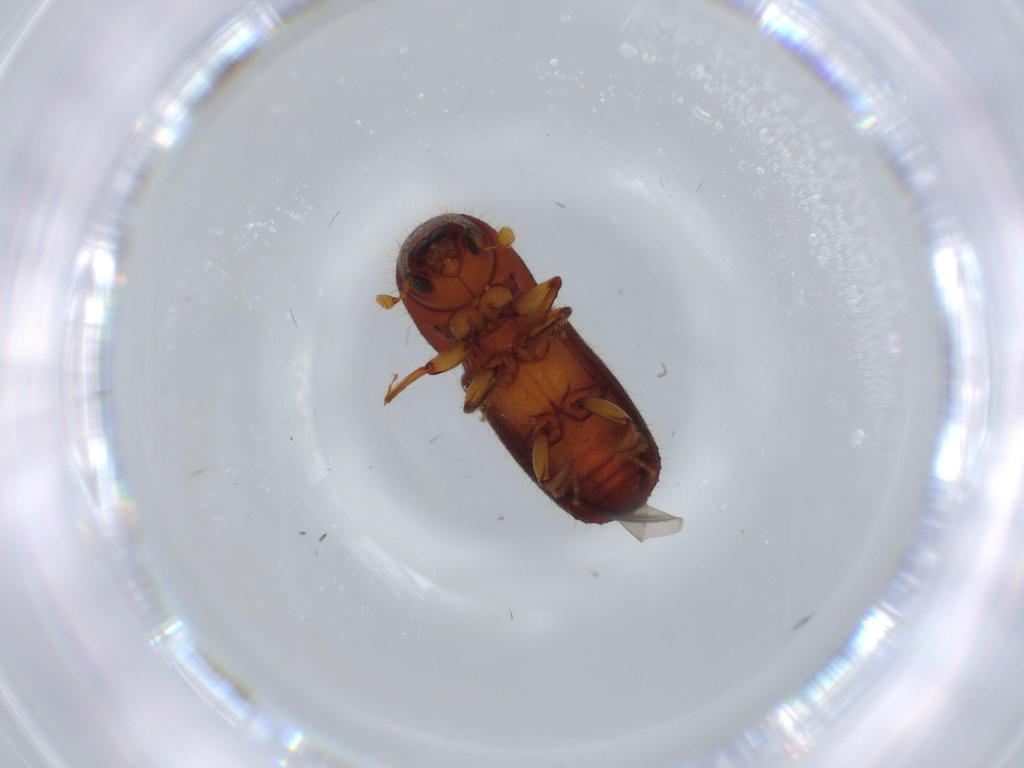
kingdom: Animalia
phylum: Arthropoda
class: Insecta
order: Coleoptera
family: Curculionidae
